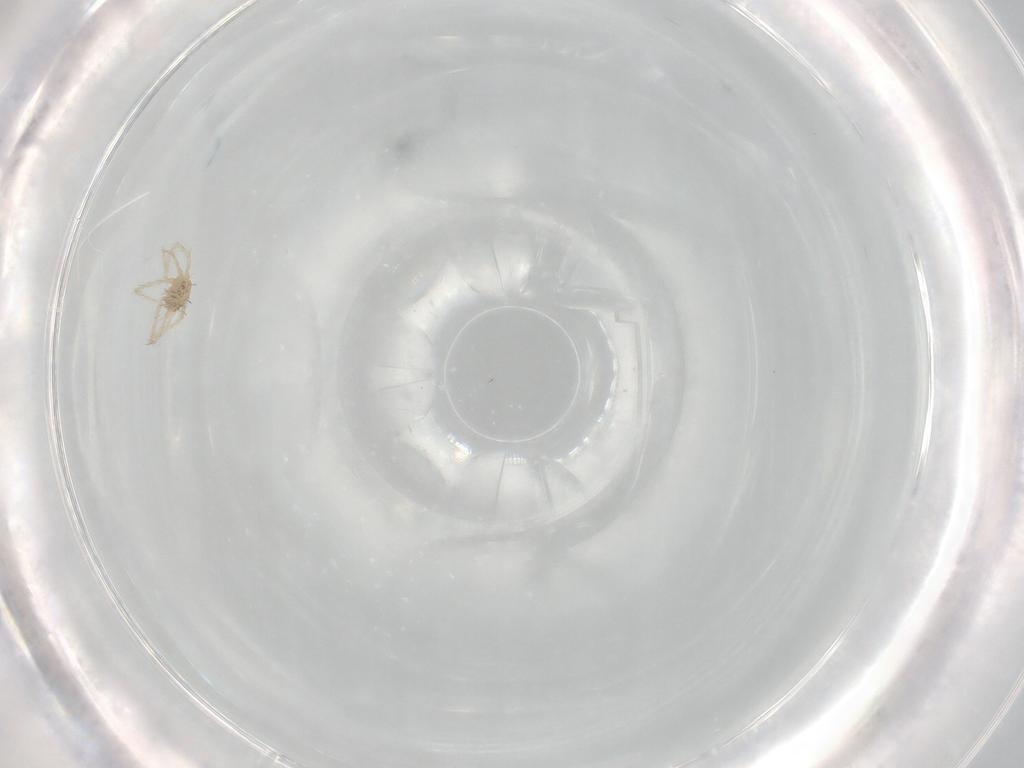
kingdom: Animalia
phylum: Arthropoda
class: Arachnida
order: Trombidiformes
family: Erythraeidae
